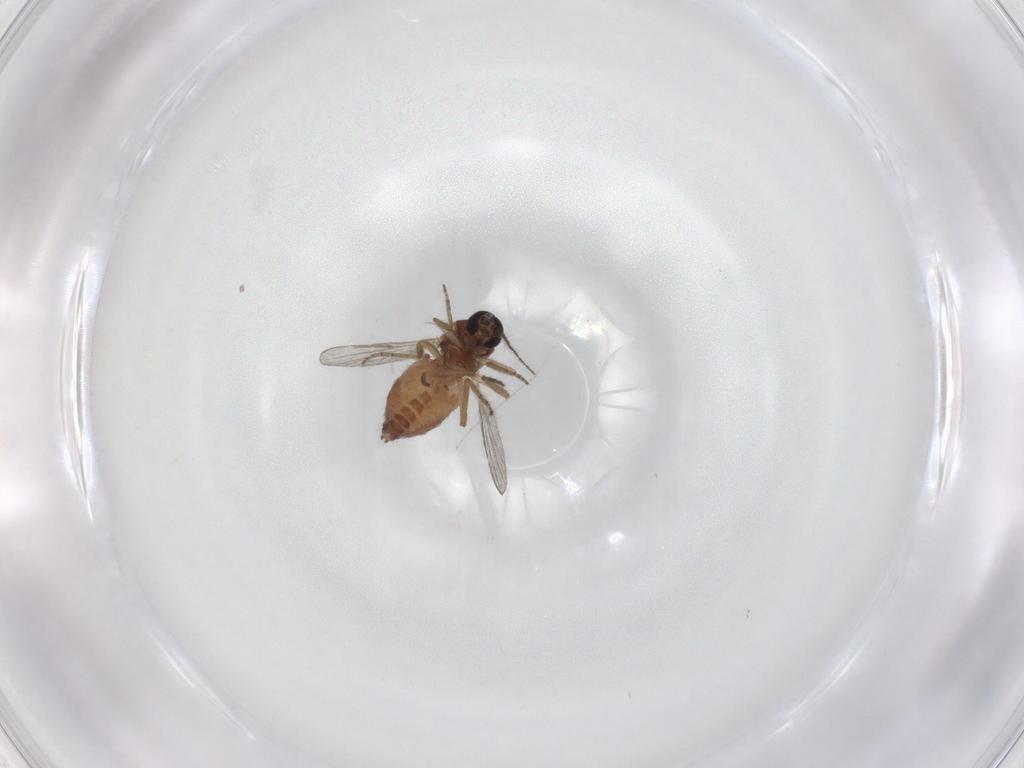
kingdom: Animalia
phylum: Arthropoda
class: Insecta
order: Diptera
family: Ceratopogonidae
